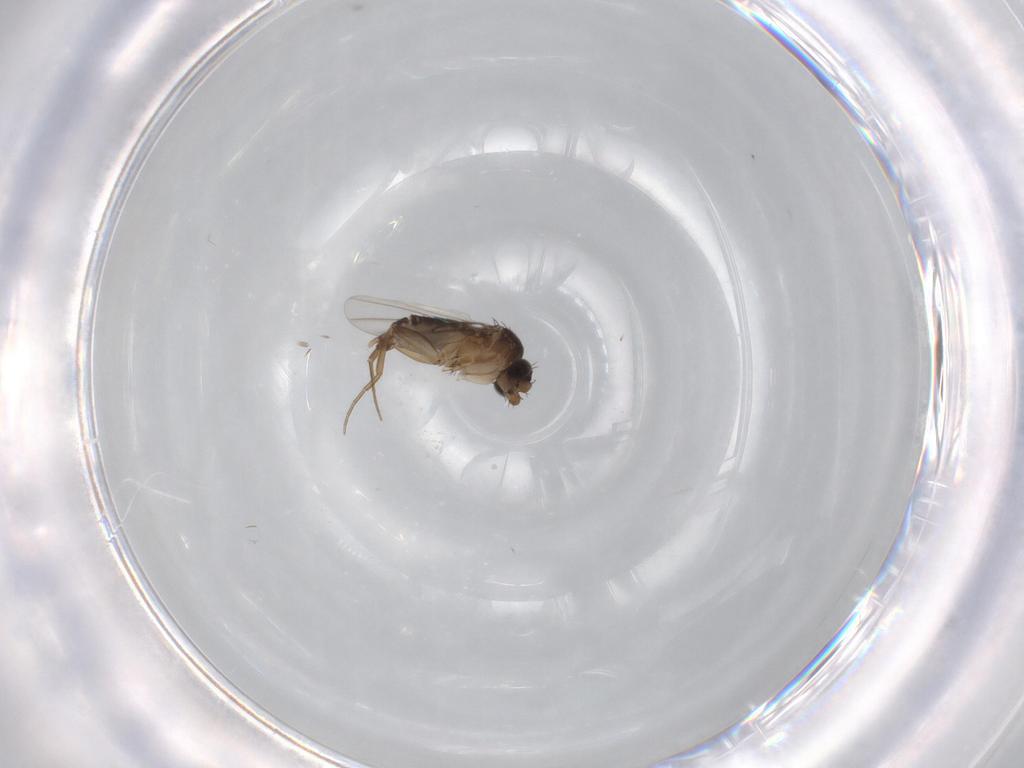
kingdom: Animalia
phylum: Arthropoda
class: Insecta
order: Diptera
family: Phoridae
